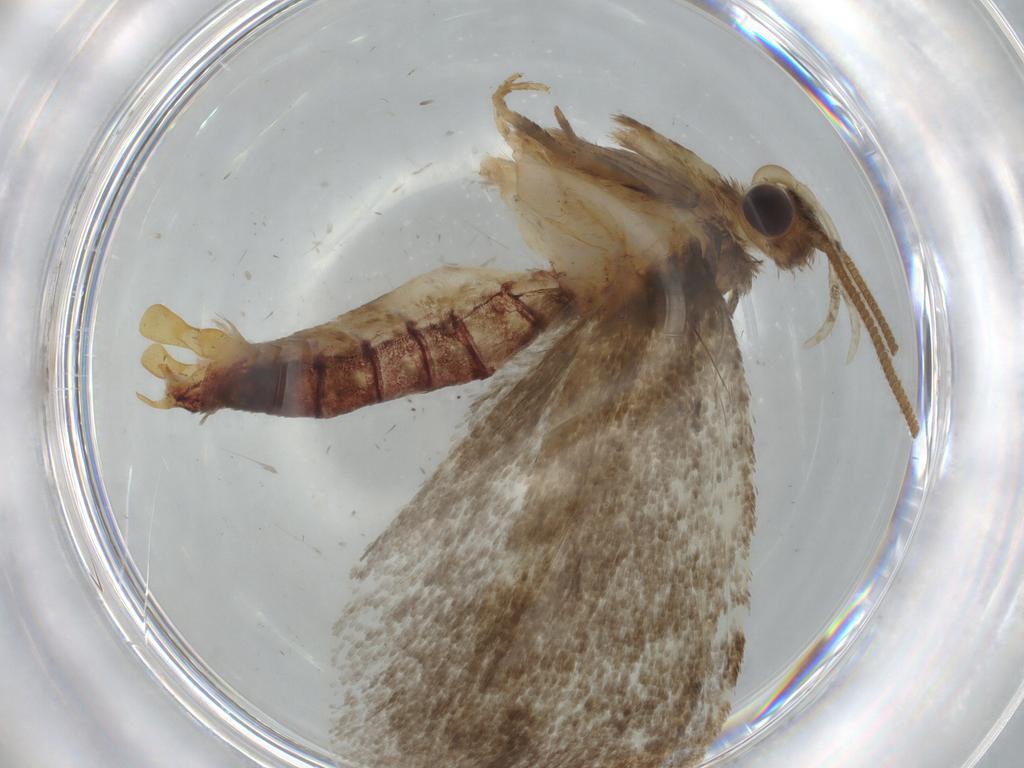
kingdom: Animalia
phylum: Arthropoda
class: Insecta
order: Lepidoptera
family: Tineidae
